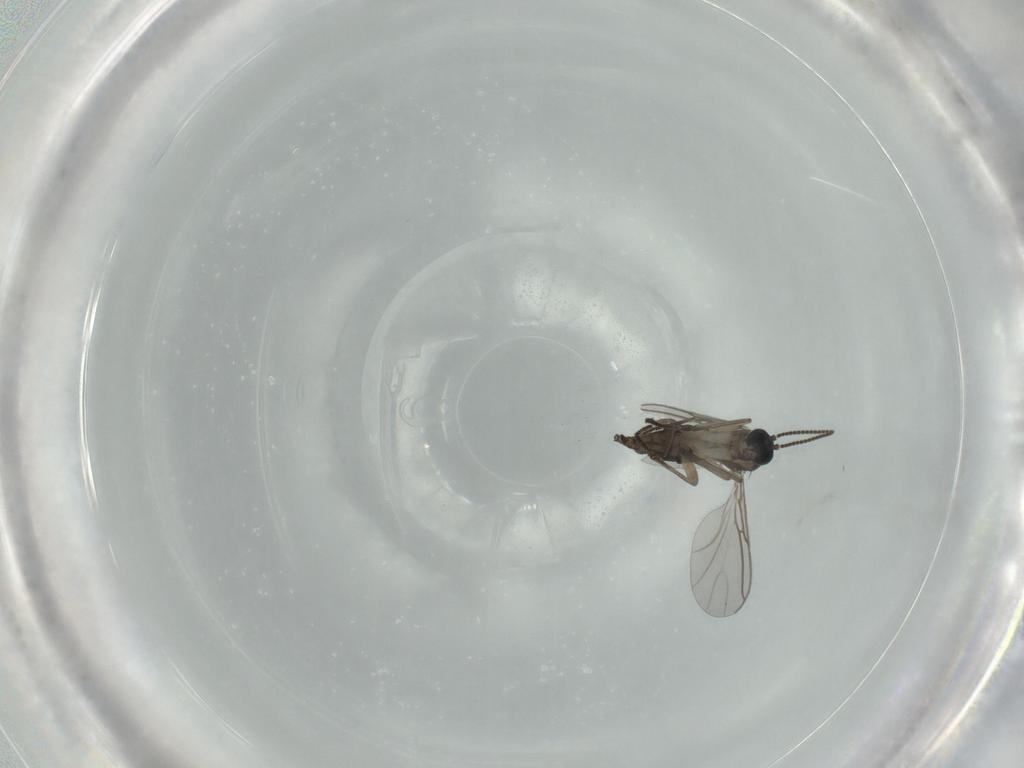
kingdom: Animalia
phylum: Arthropoda
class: Insecta
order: Diptera
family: Sciaridae
